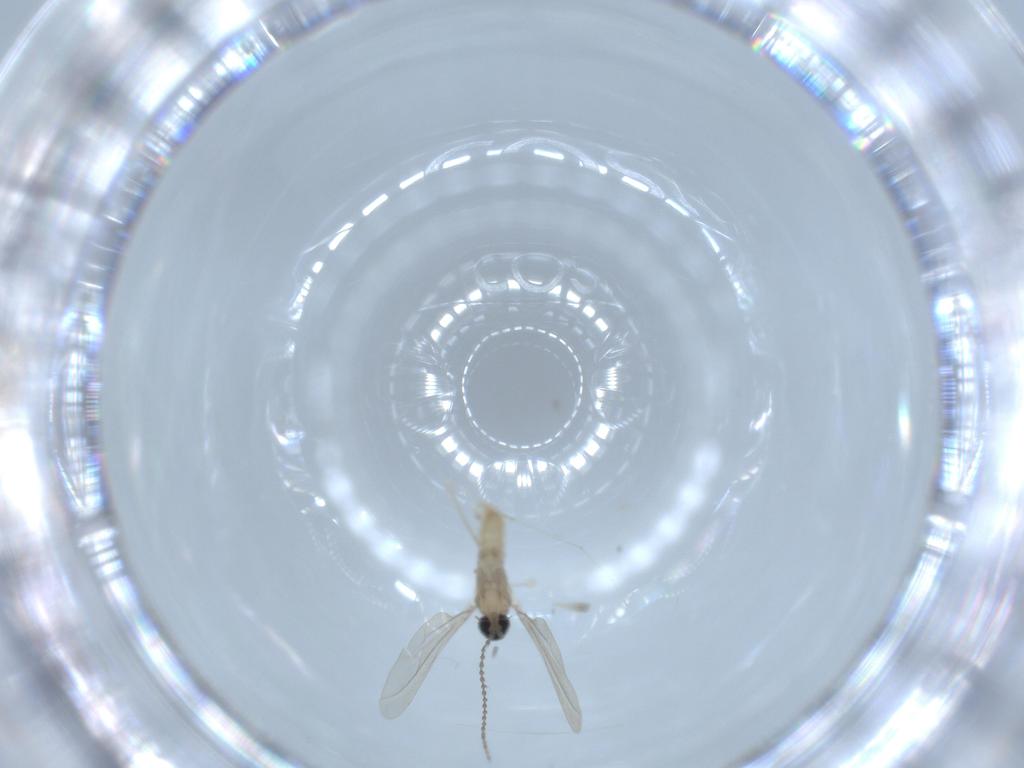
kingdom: Animalia
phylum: Arthropoda
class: Insecta
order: Diptera
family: Cecidomyiidae
